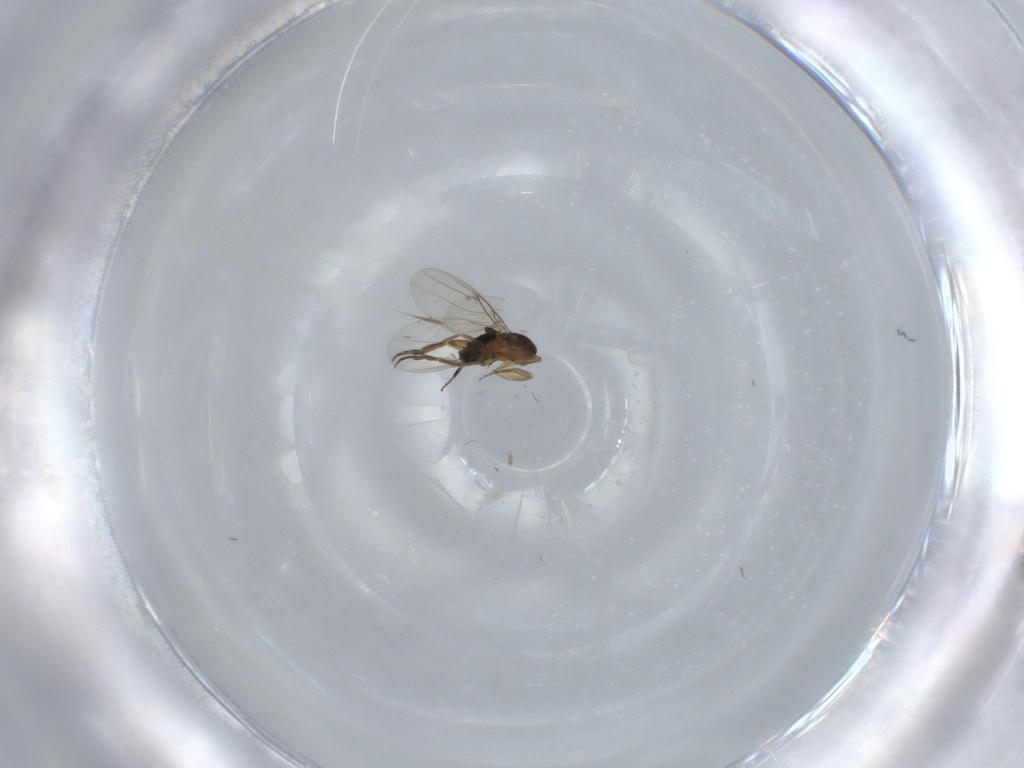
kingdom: Animalia
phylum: Arthropoda
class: Insecta
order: Diptera
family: Phoridae
